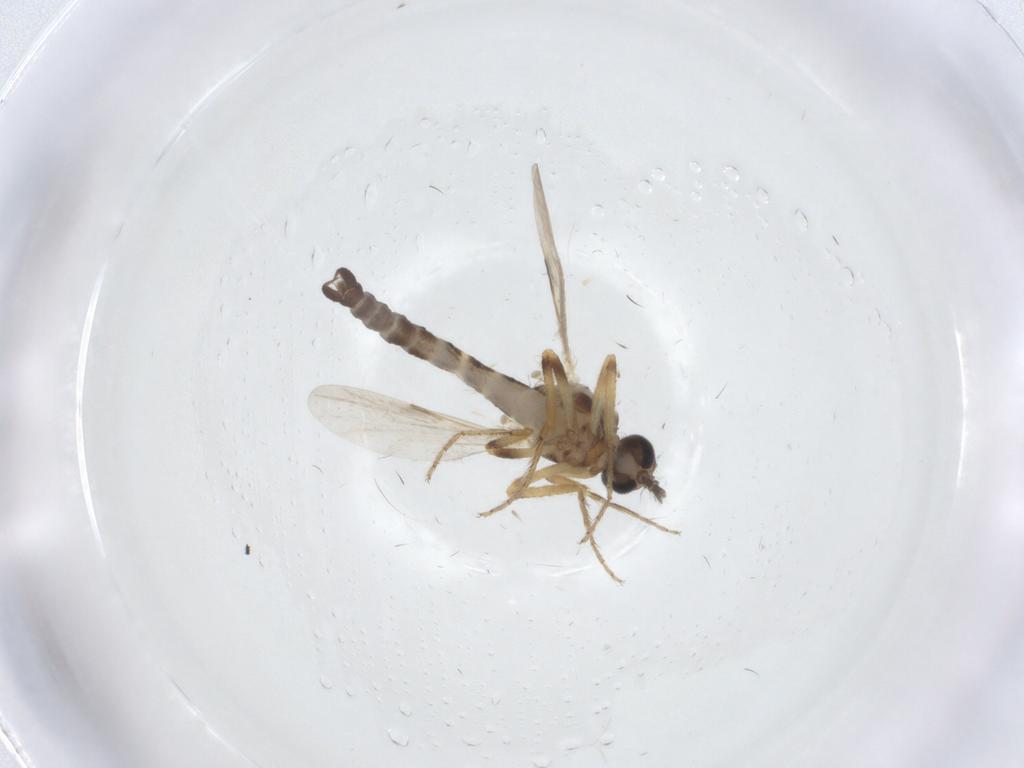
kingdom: Animalia
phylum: Arthropoda
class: Insecta
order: Diptera
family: Ceratopogonidae
